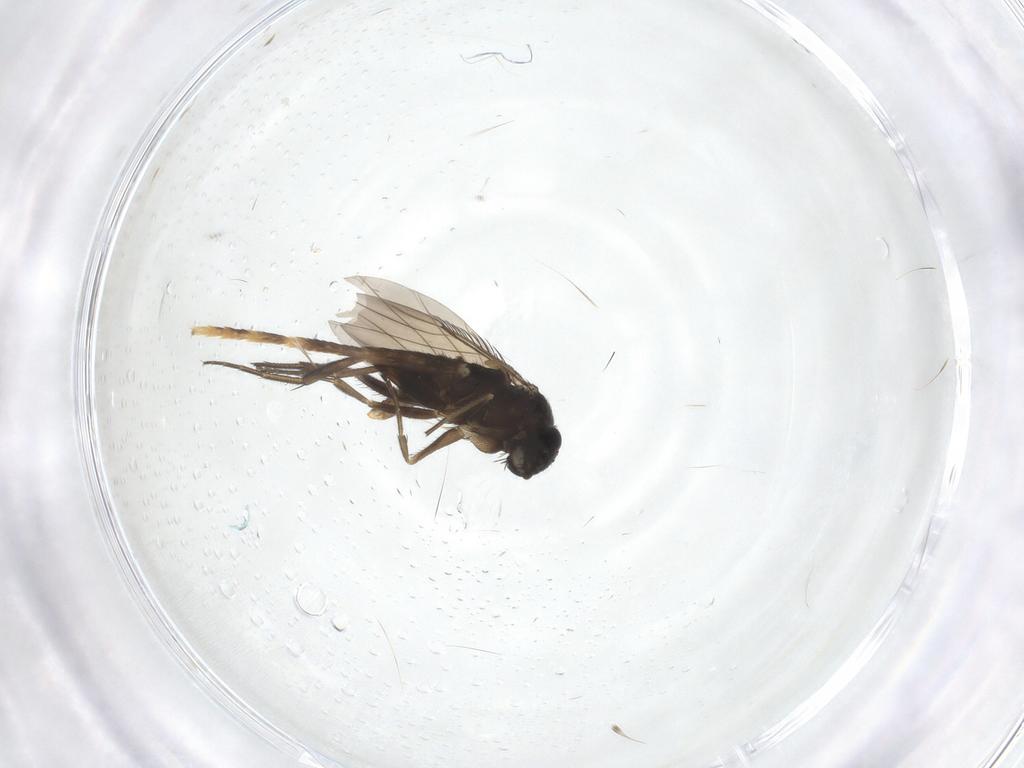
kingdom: Animalia
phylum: Arthropoda
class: Insecta
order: Diptera
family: Phoridae
